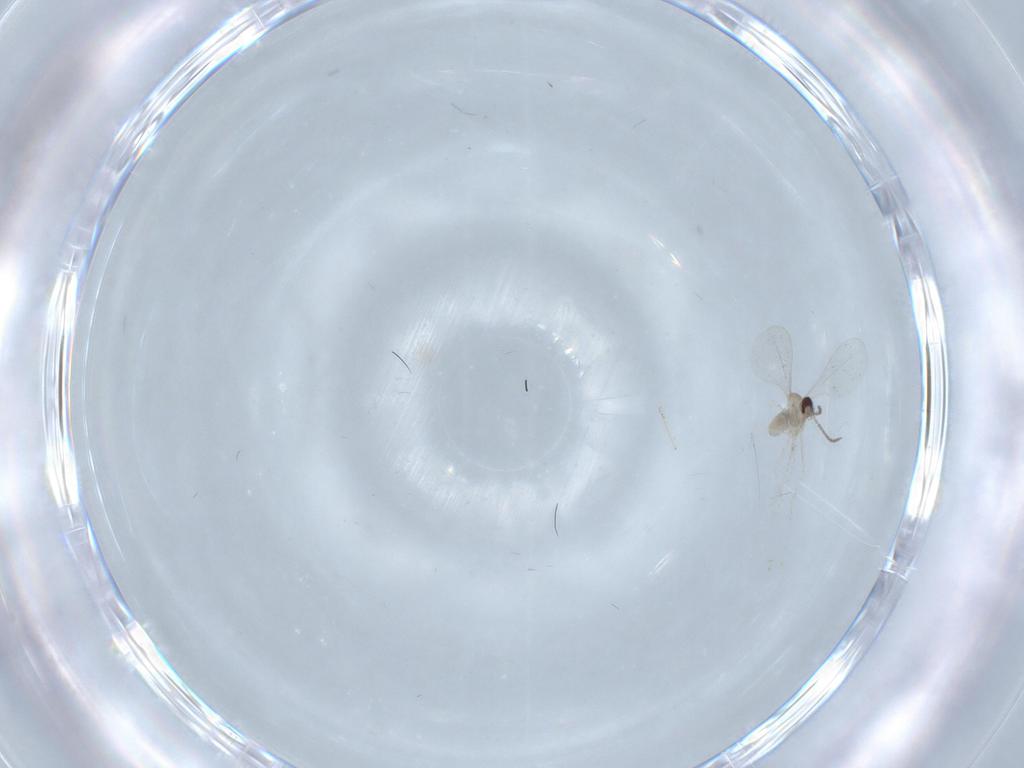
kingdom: Animalia
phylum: Arthropoda
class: Insecta
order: Diptera
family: Cecidomyiidae
